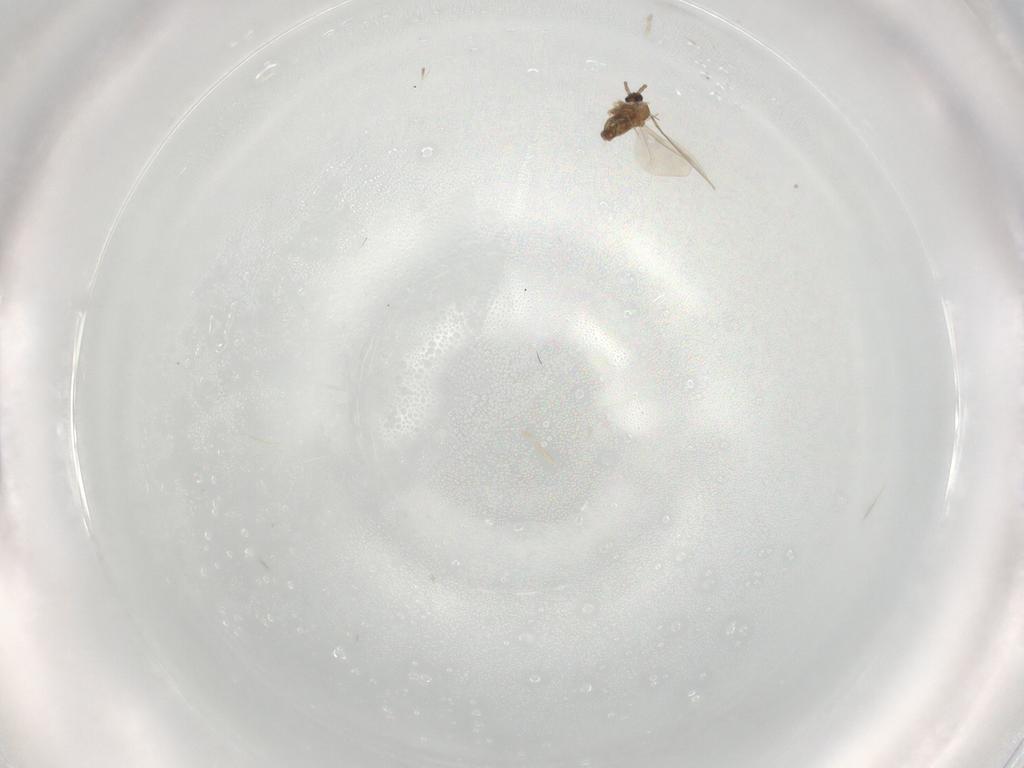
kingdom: Animalia
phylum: Arthropoda
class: Insecta
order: Diptera
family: Cecidomyiidae
